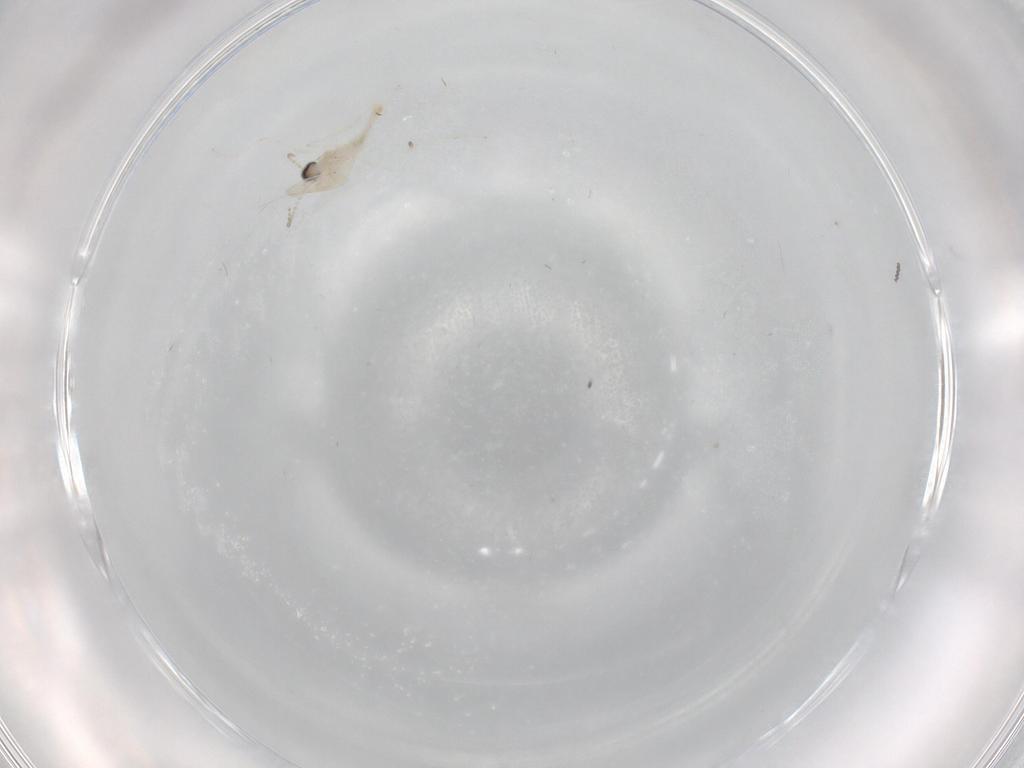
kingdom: Animalia
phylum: Arthropoda
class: Insecta
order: Diptera
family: Cecidomyiidae
